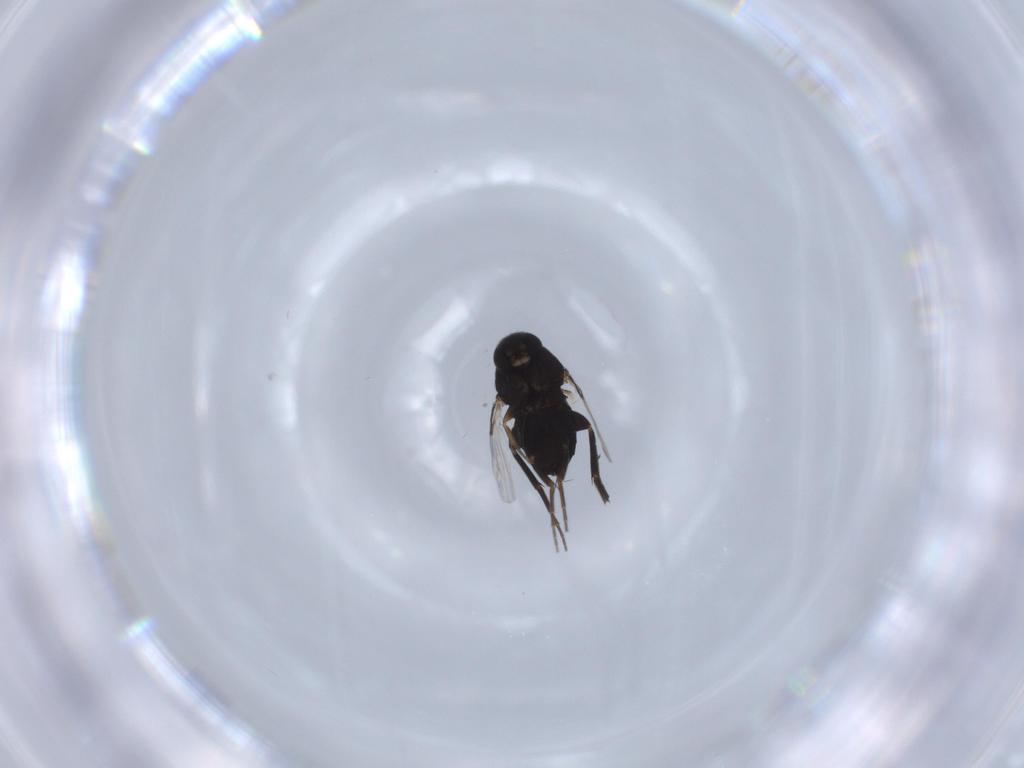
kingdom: Animalia
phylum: Arthropoda
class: Insecta
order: Diptera
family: Phoridae
